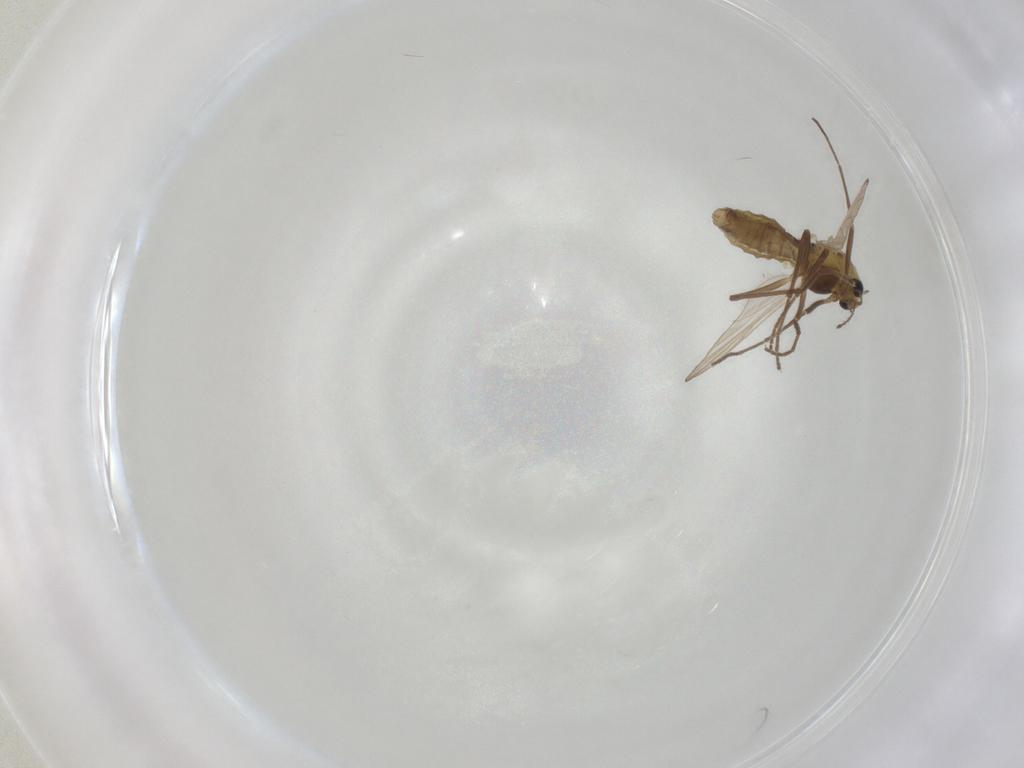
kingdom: Animalia
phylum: Arthropoda
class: Insecta
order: Diptera
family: Chironomidae
